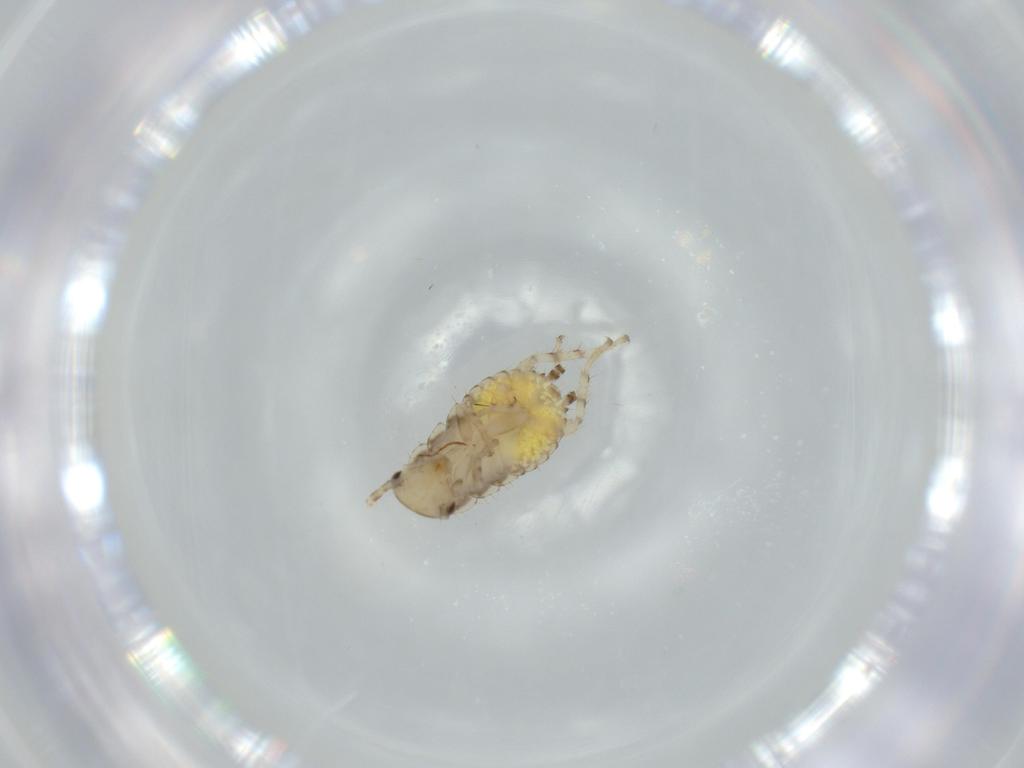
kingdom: Animalia
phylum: Arthropoda
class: Insecta
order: Blattodea
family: Ectobiidae
